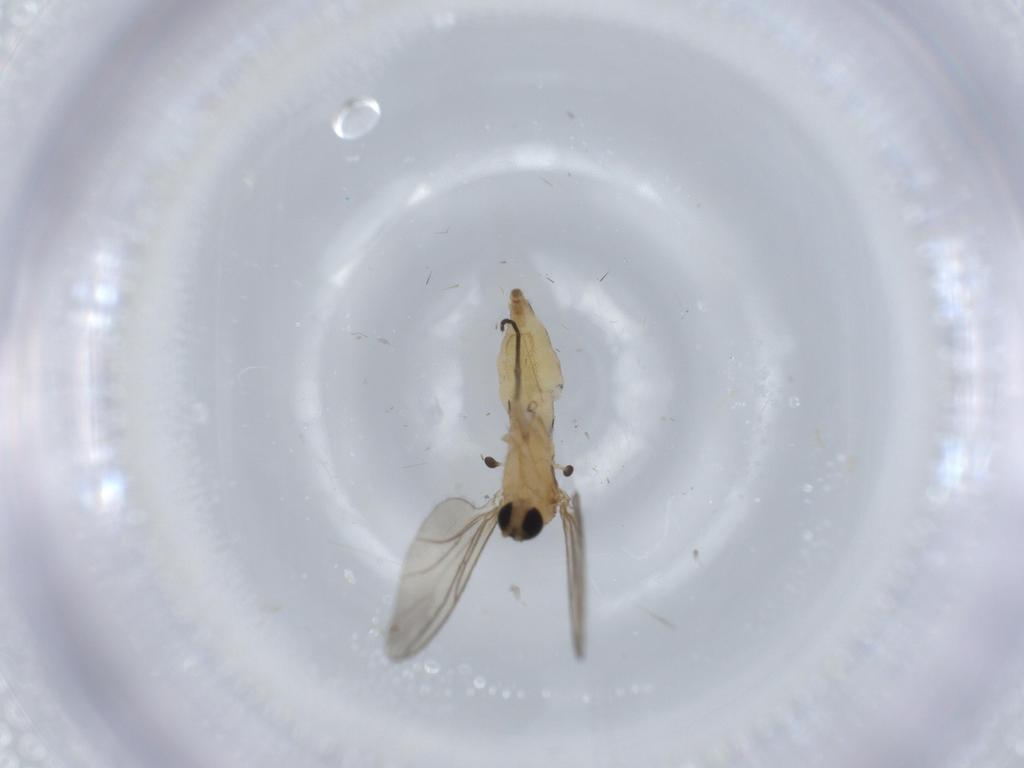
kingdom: Animalia
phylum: Arthropoda
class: Insecta
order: Diptera
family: Sciaridae
